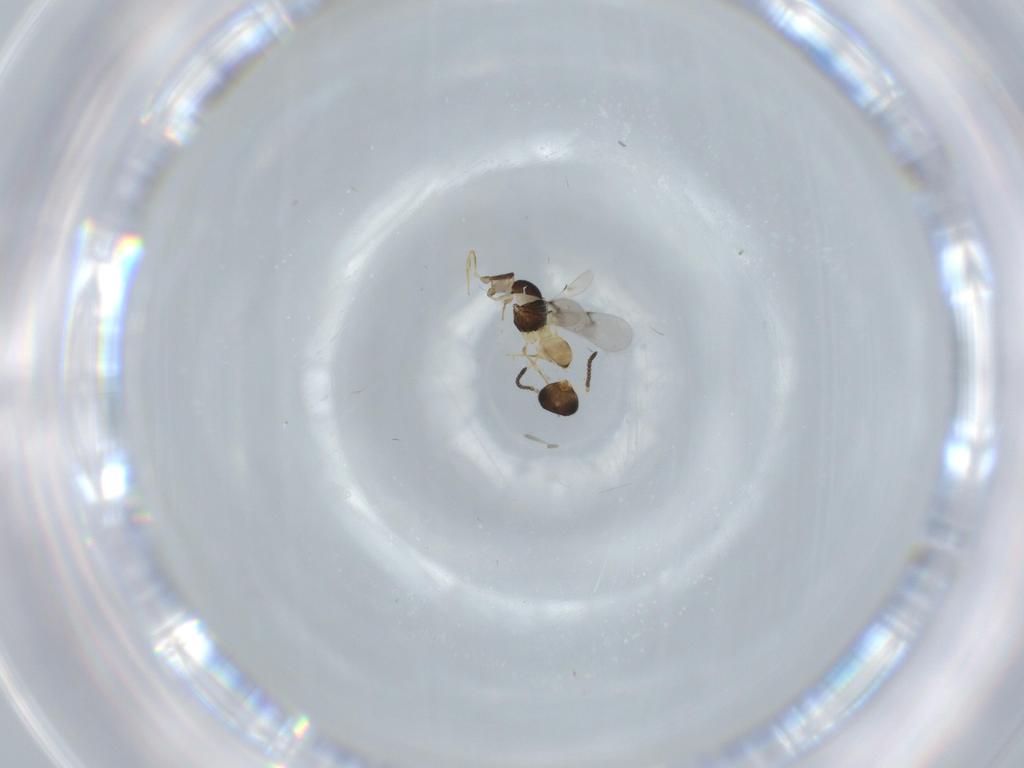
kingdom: Animalia
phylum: Arthropoda
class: Insecta
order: Hymenoptera
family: Scelionidae
